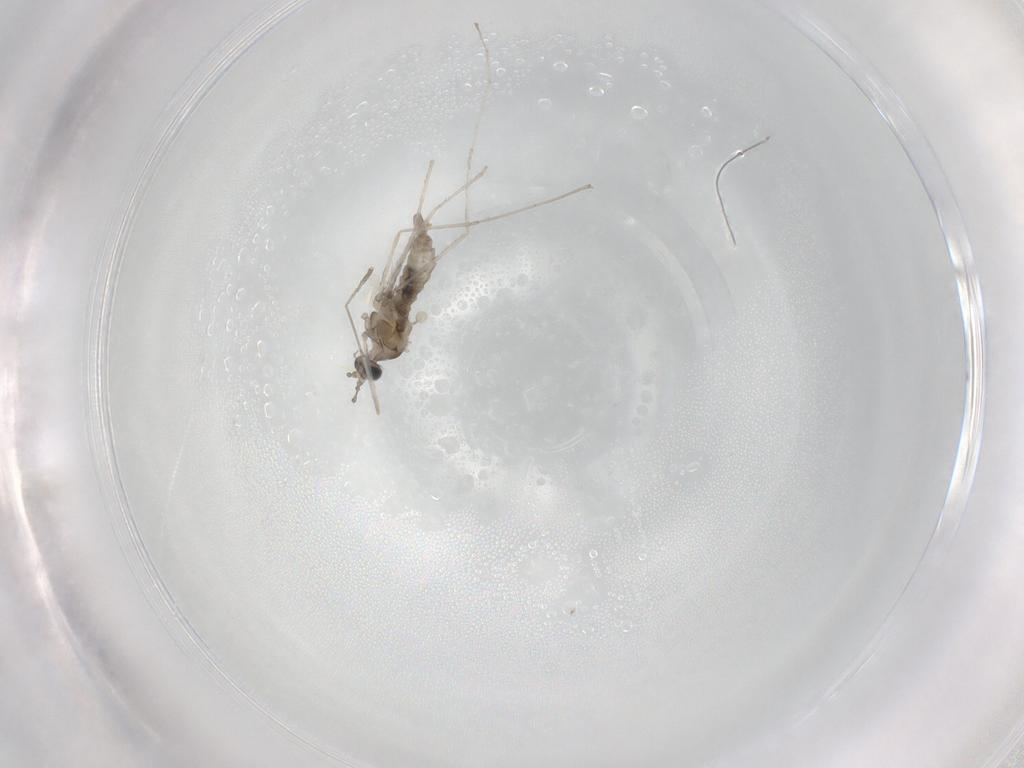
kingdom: Animalia
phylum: Arthropoda
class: Insecta
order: Diptera
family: Cecidomyiidae
